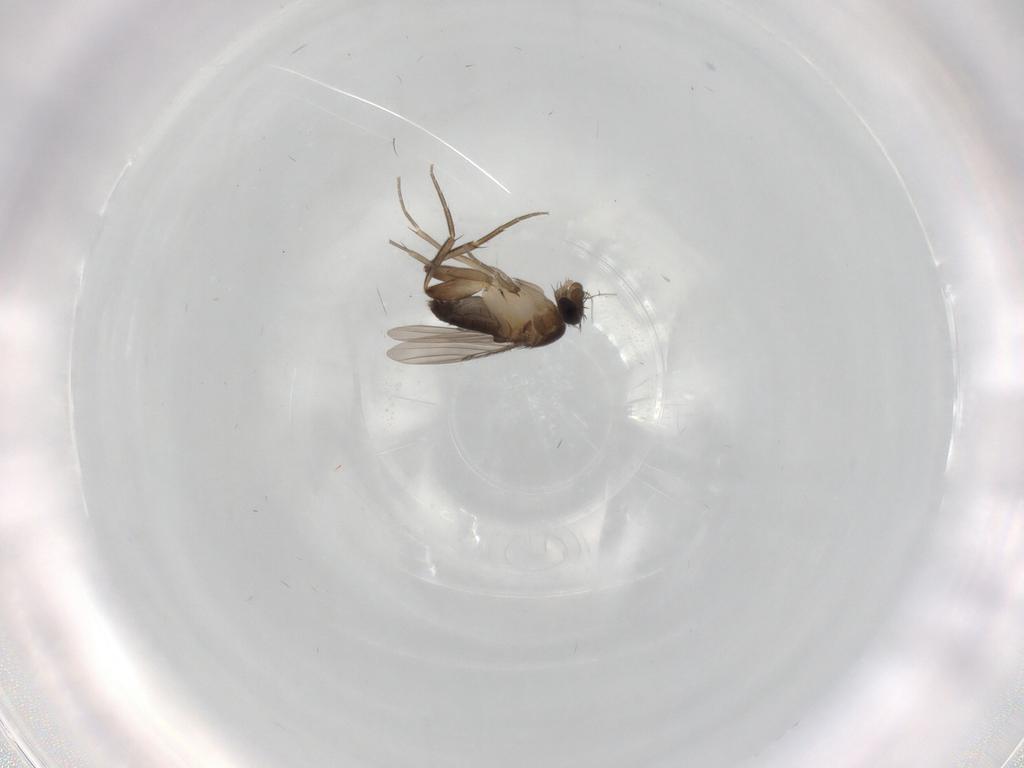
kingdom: Animalia
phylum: Arthropoda
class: Insecta
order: Diptera
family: Phoridae
